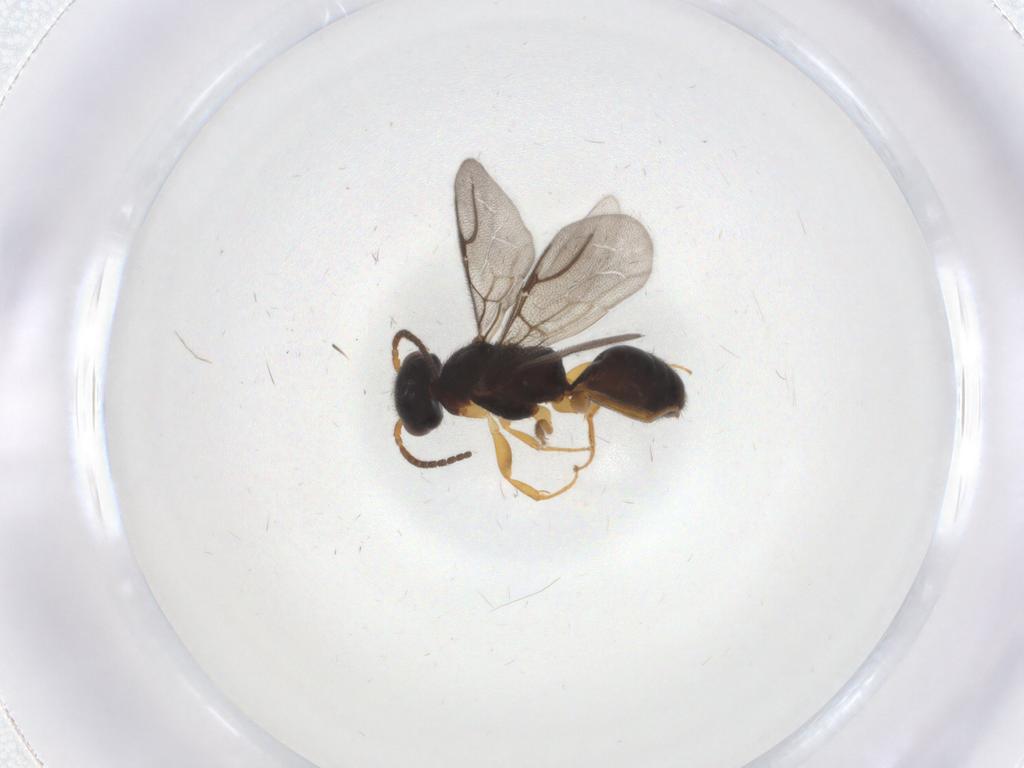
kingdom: Animalia
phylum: Arthropoda
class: Insecta
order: Hymenoptera
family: Bethylidae
